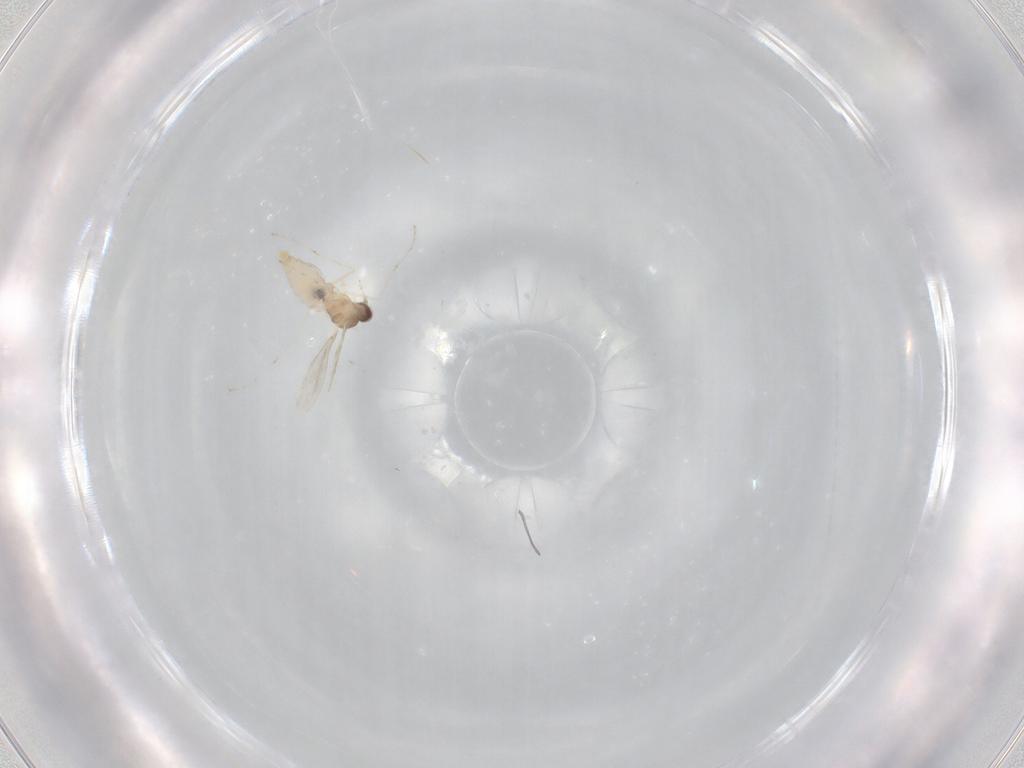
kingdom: Animalia
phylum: Arthropoda
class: Insecta
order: Diptera
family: Cecidomyiidae
